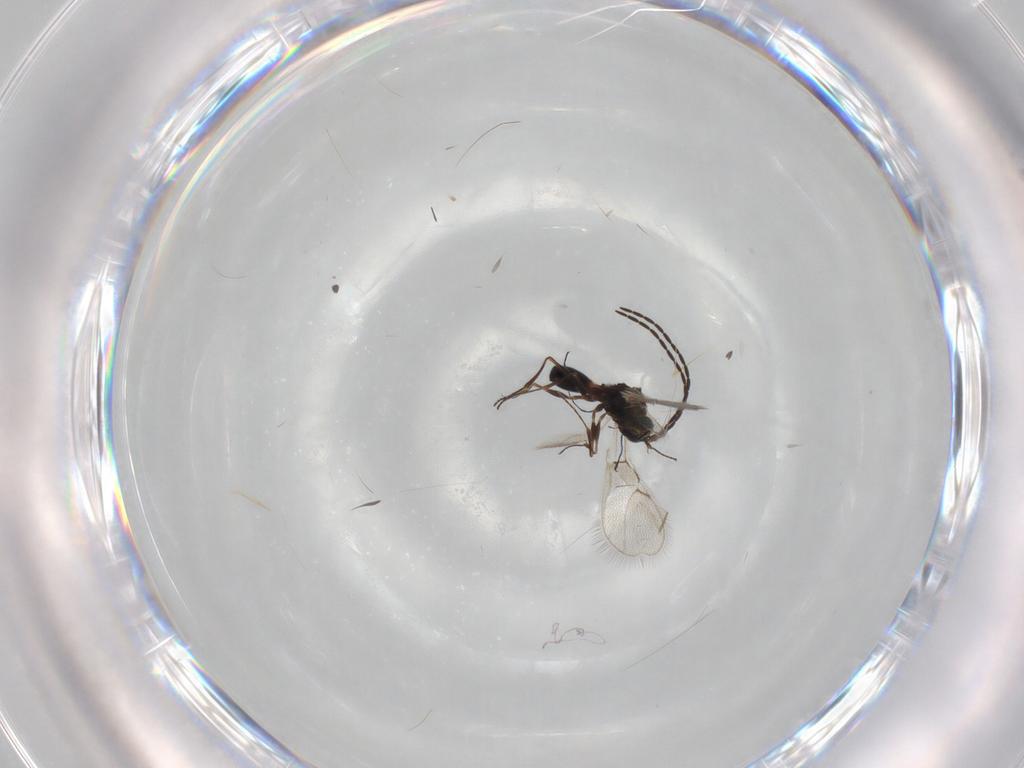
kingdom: Animalia
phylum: Arthropoda
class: Insecta
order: Hymenoptera
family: Figitidae
